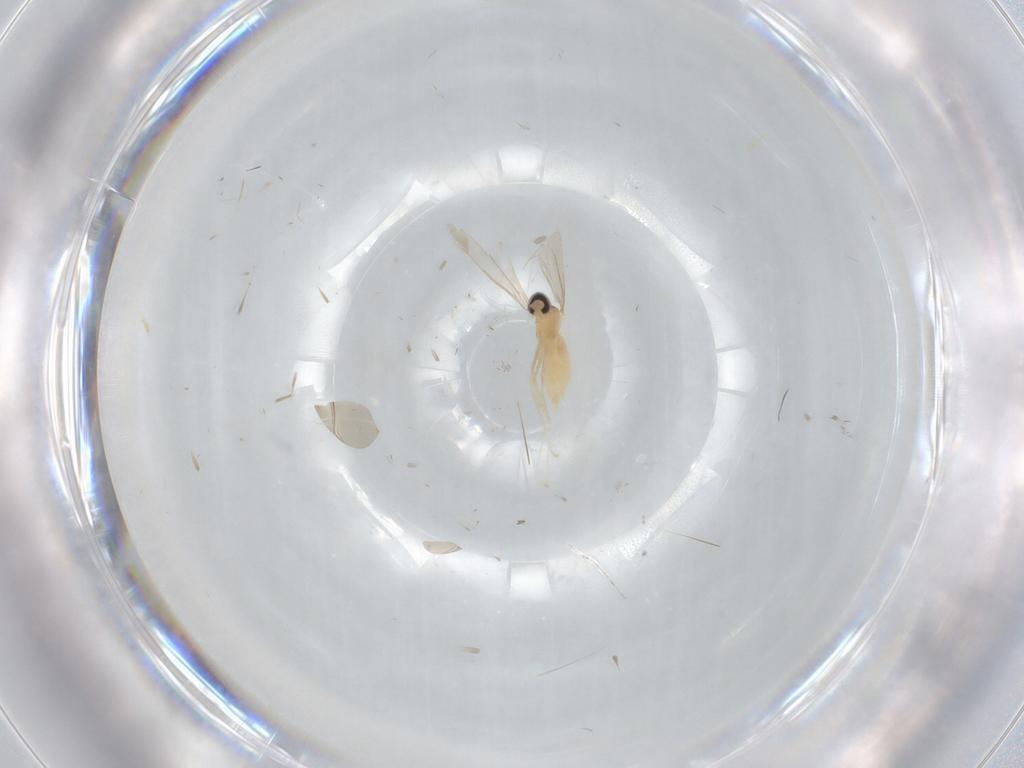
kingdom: Animalia
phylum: Arthropoda
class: Insecta
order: Diptera
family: Cecidomyiidae
